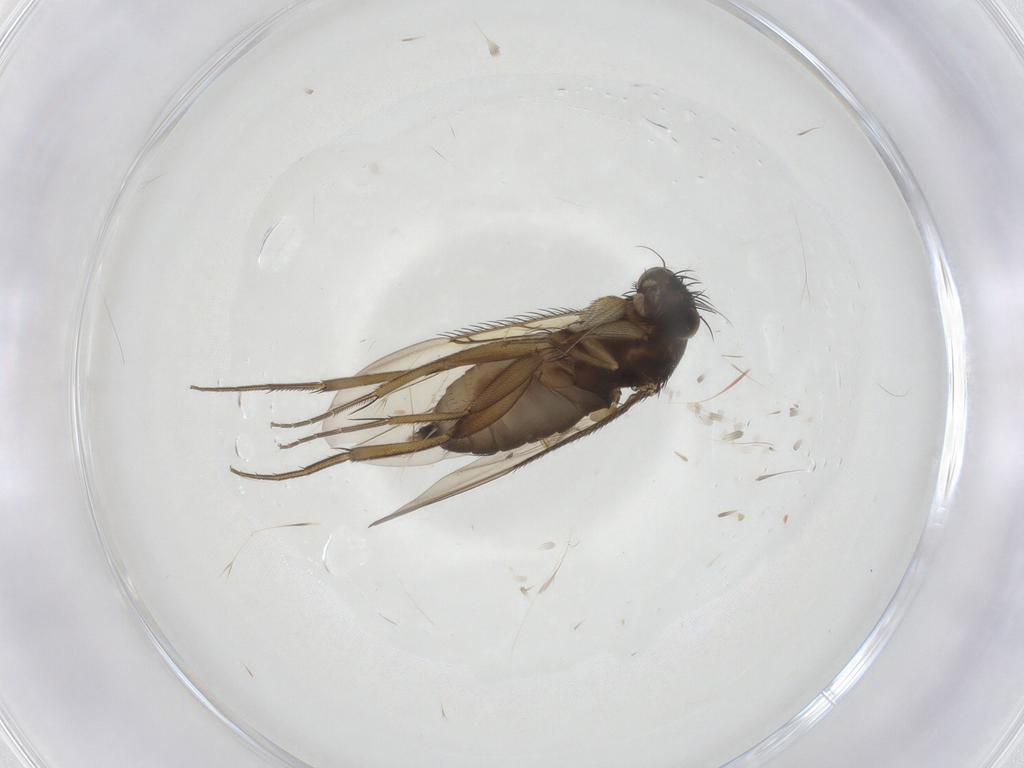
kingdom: Animalia
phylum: Arthropoda
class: Insecta
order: Diptera
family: Phoridae
